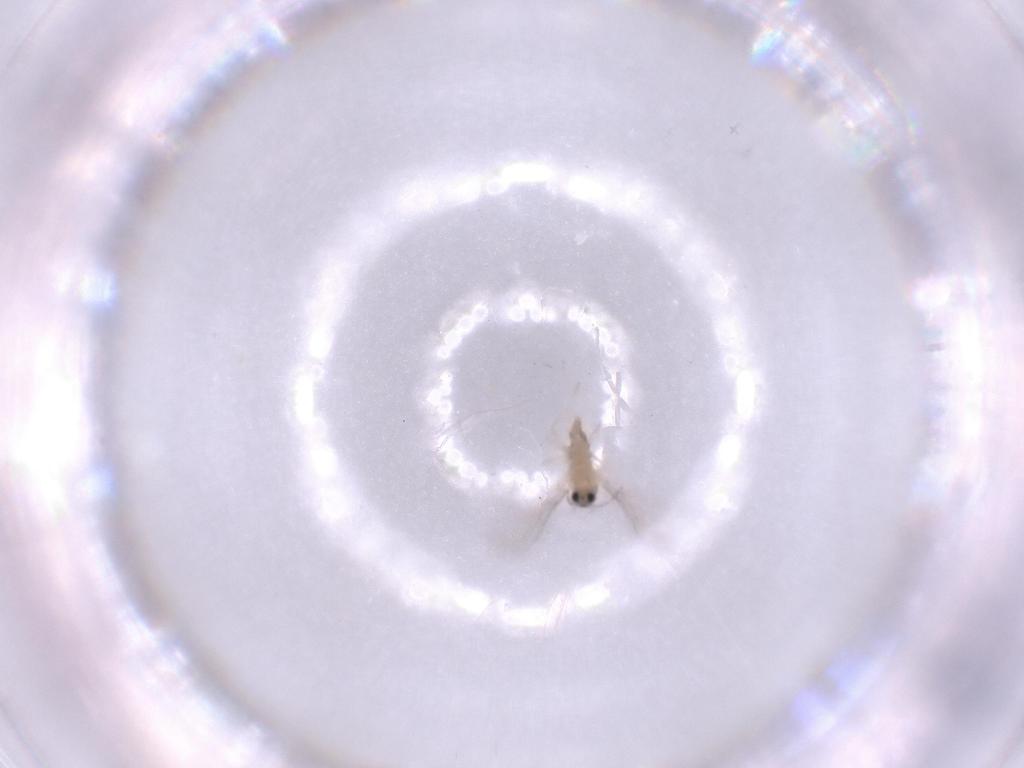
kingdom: Animalia
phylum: Arthropoda
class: Insecta
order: Diptera
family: Cecidomyiidae
